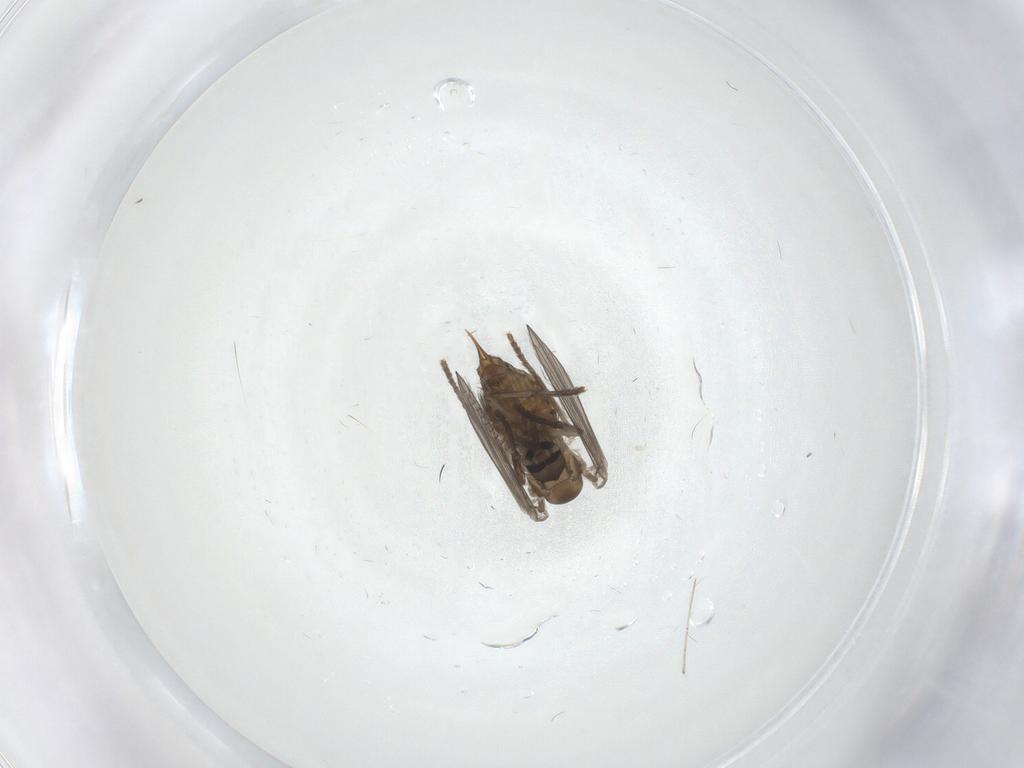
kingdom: Animalia
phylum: Arthropoda
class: Insecta
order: Diptera
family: Psychodidae
